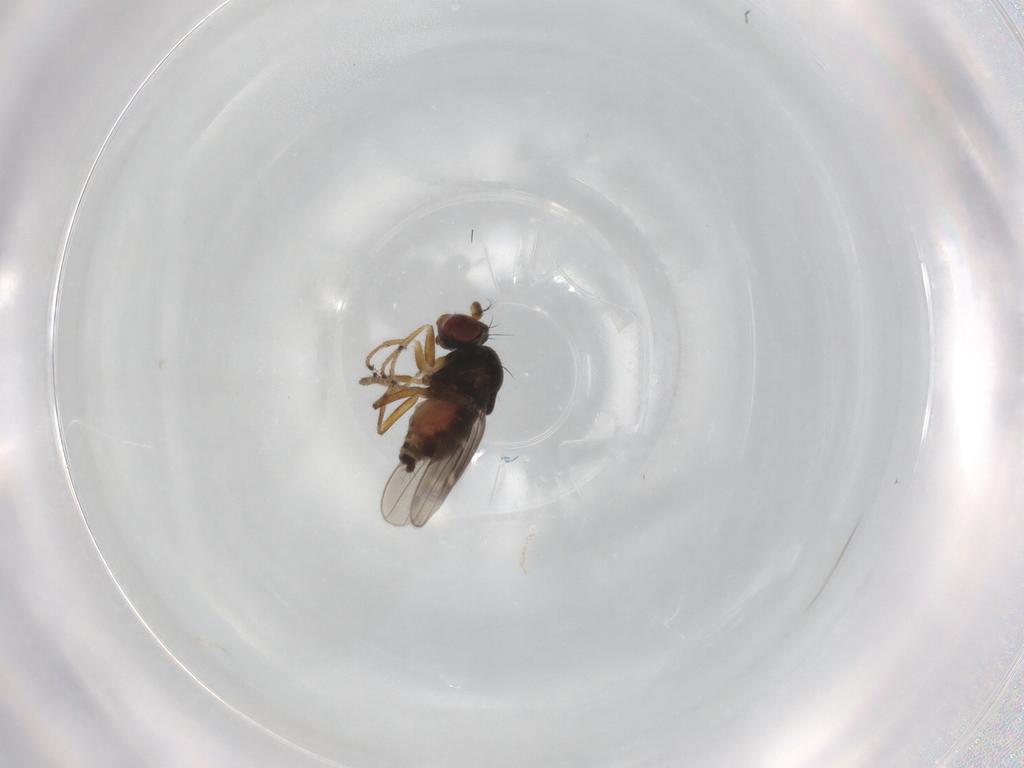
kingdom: Animalia
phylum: Arthropoda
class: Insecta
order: Diptera
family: Ephydridae
